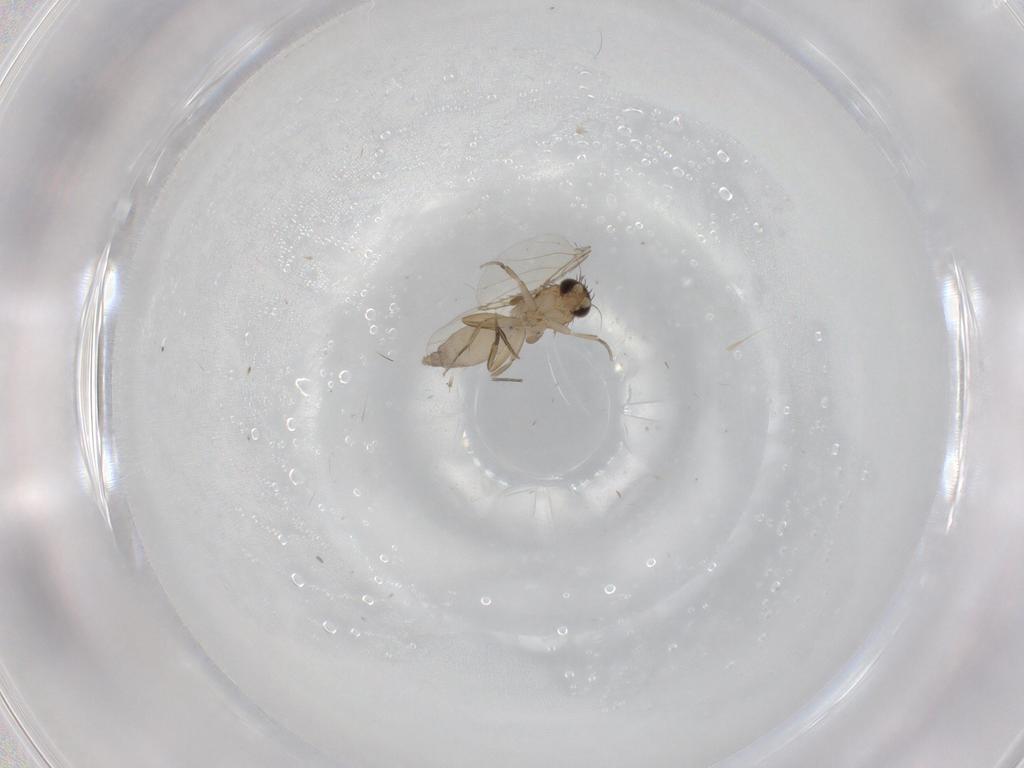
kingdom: Animalia
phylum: Arthropoda
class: Insecta
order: Diptera
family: Phoridae
